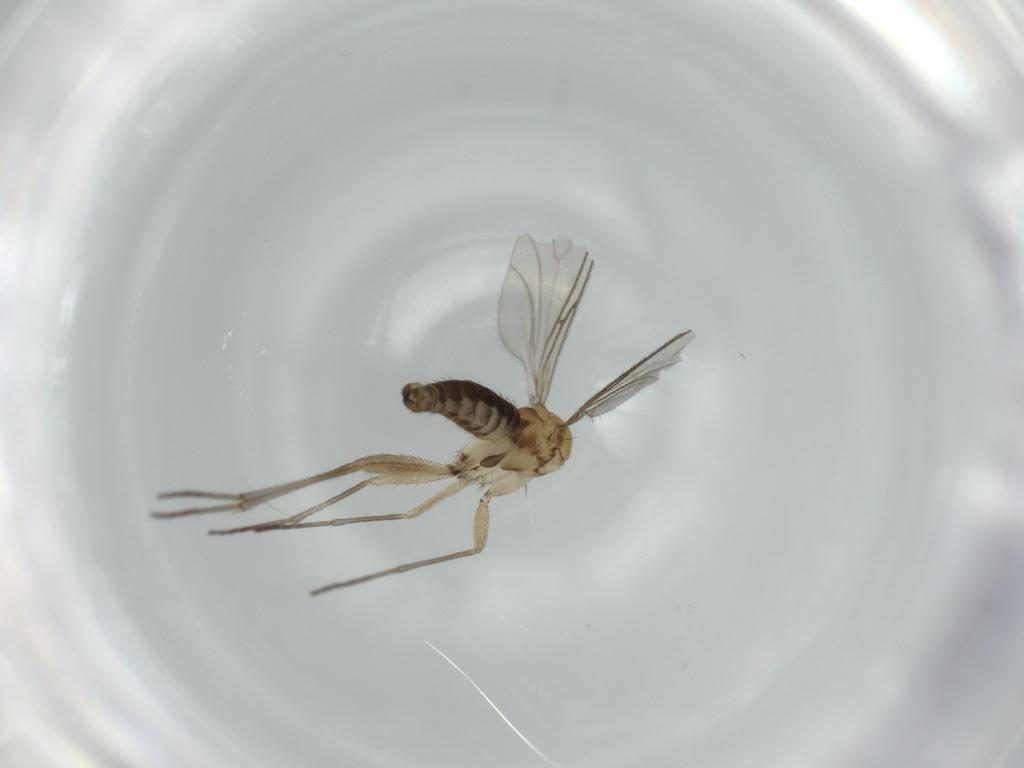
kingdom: Animalia
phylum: Arthropoda
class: Insecta
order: Diptera
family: Sciaridae
